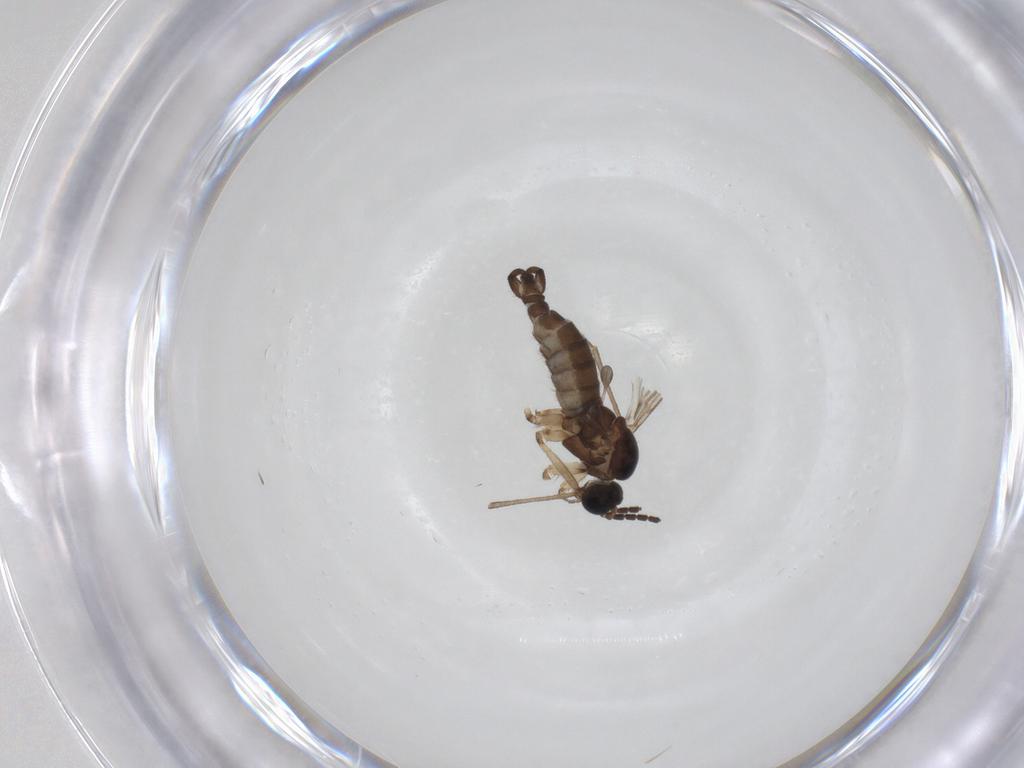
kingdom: Animalia
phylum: Arthropoda
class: Insecta
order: Diptera
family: Sciaridae
